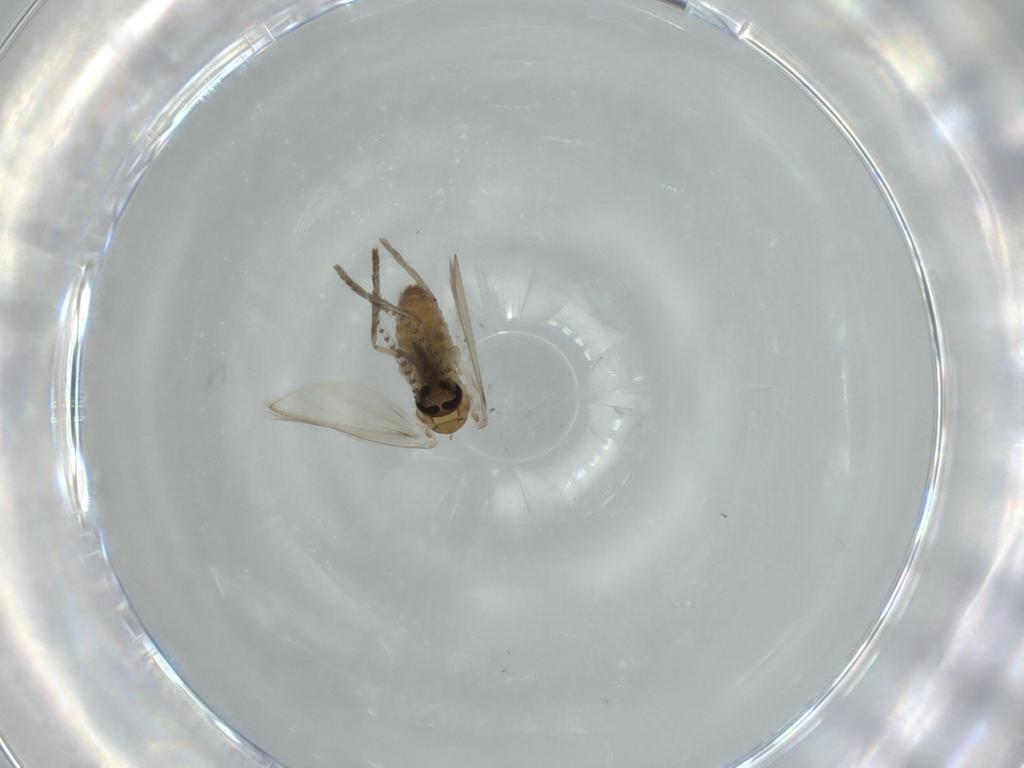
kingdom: Animalia
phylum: Arthropoda
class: Insecta
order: Diptera
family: Psychodidae
